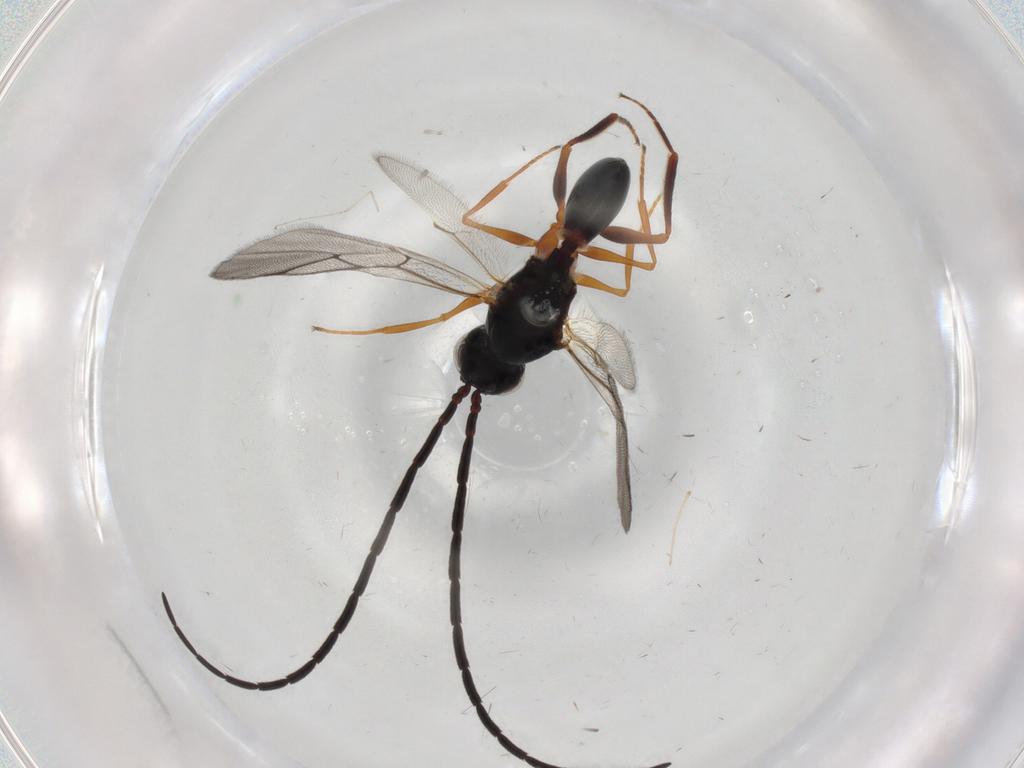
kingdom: Animalia
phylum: Arthropoda
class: Insecta
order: Hymenoptera
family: Figitidae
